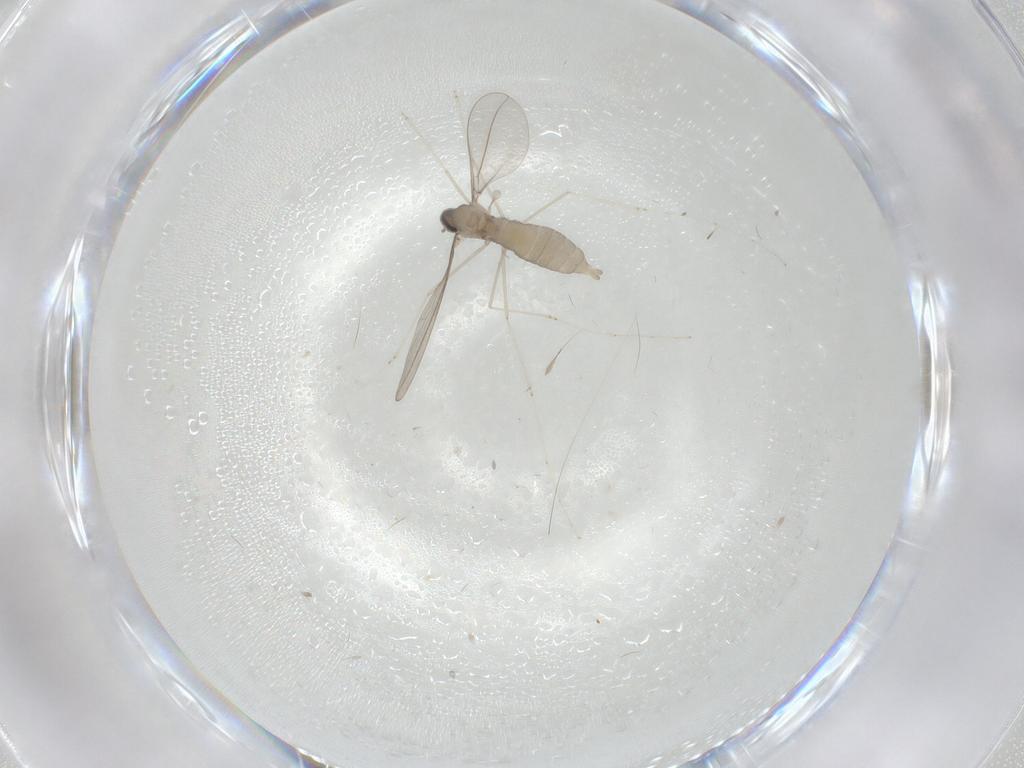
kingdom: Animalia
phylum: Arthropoda
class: Insecta
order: Diptera
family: Cecidomyiidae
